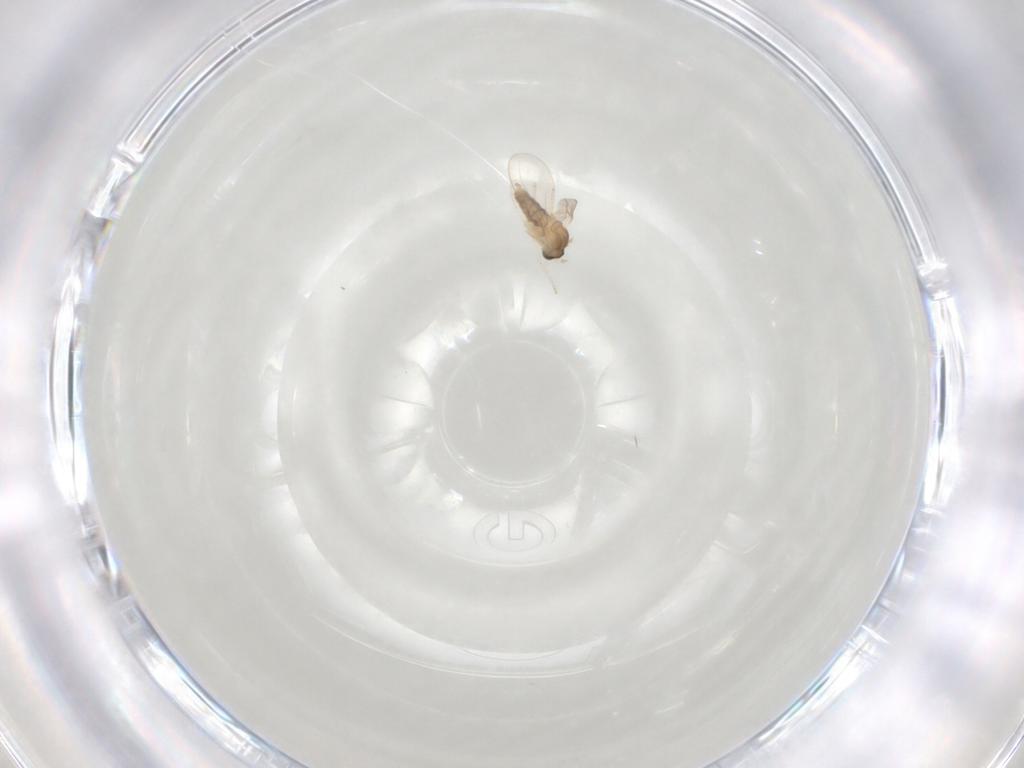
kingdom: Animalia
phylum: Arthropoda
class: Insecta
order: Diptera
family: Cecidomyiidae
